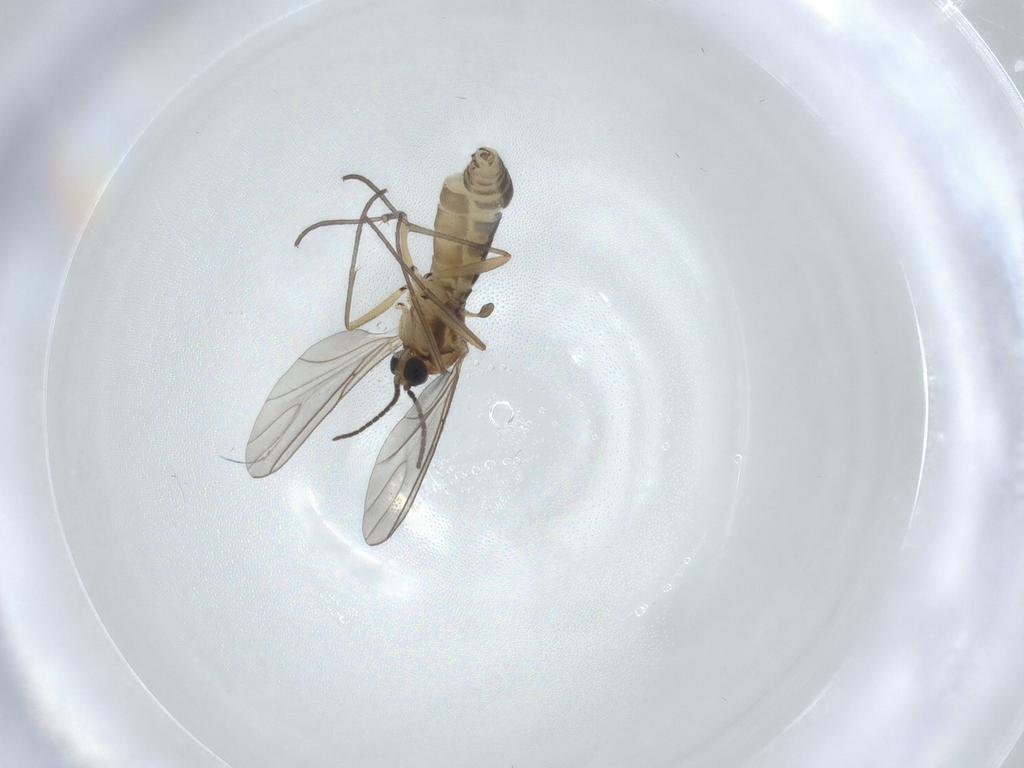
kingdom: Animalia
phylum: Arthropoda
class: Insecta
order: Diptera
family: Sciaridae
